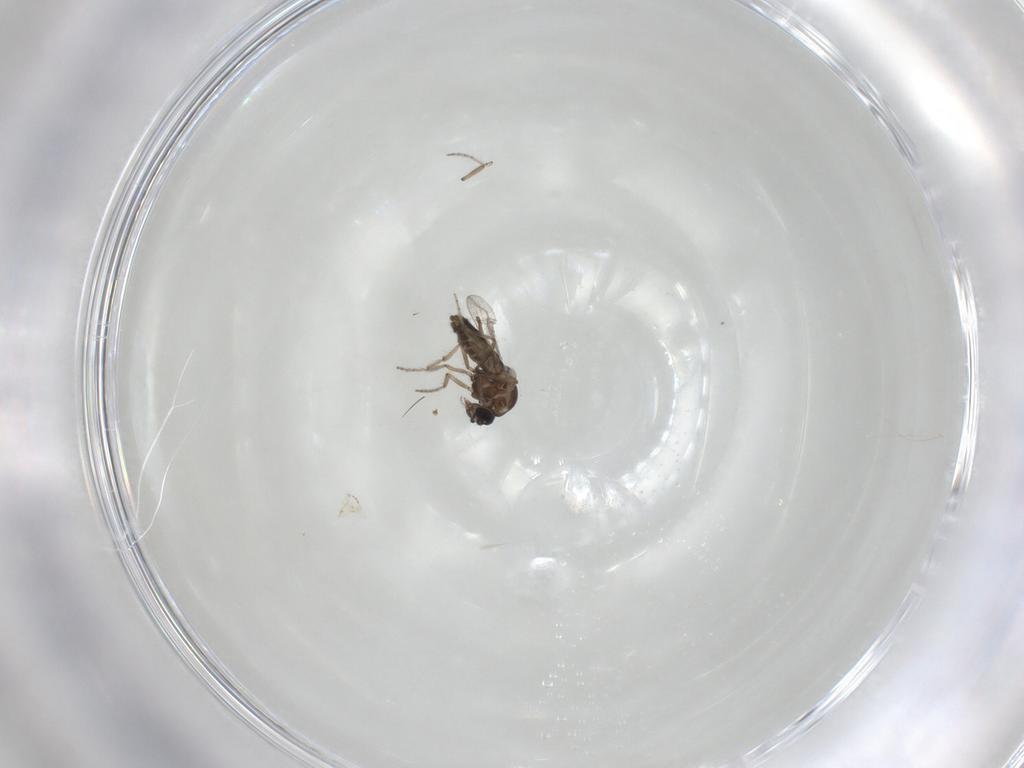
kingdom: Animalia
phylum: Arthropoda
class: Insecta
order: Diptera
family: Ceratopogonidae
